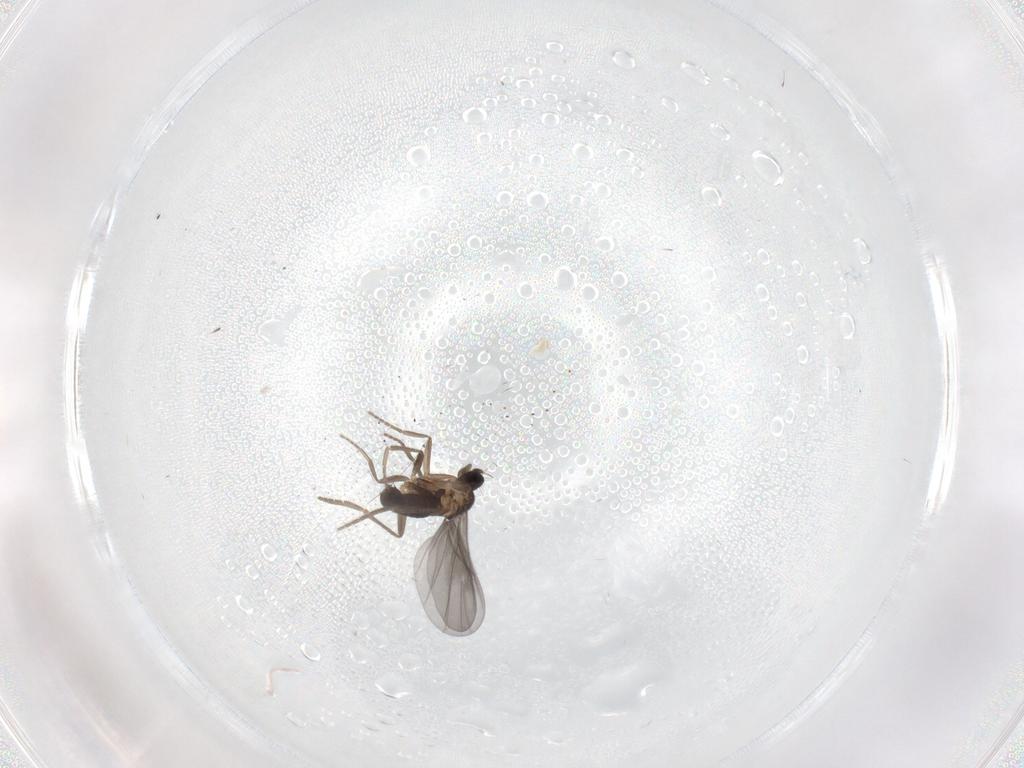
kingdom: Animalia
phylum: Arthropoda
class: Insecta
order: Diptera
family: Cecidomyiidae
